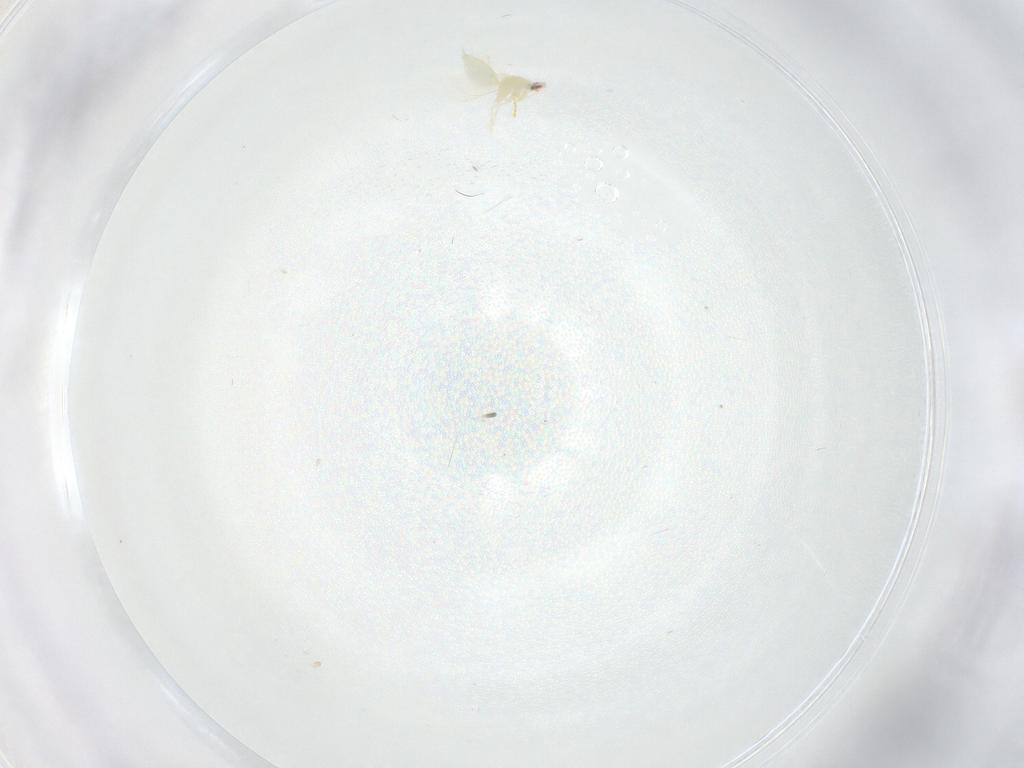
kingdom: Animalia
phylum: Arthropoda
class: Insecta
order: Hemiptera
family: Aleyrodidae
